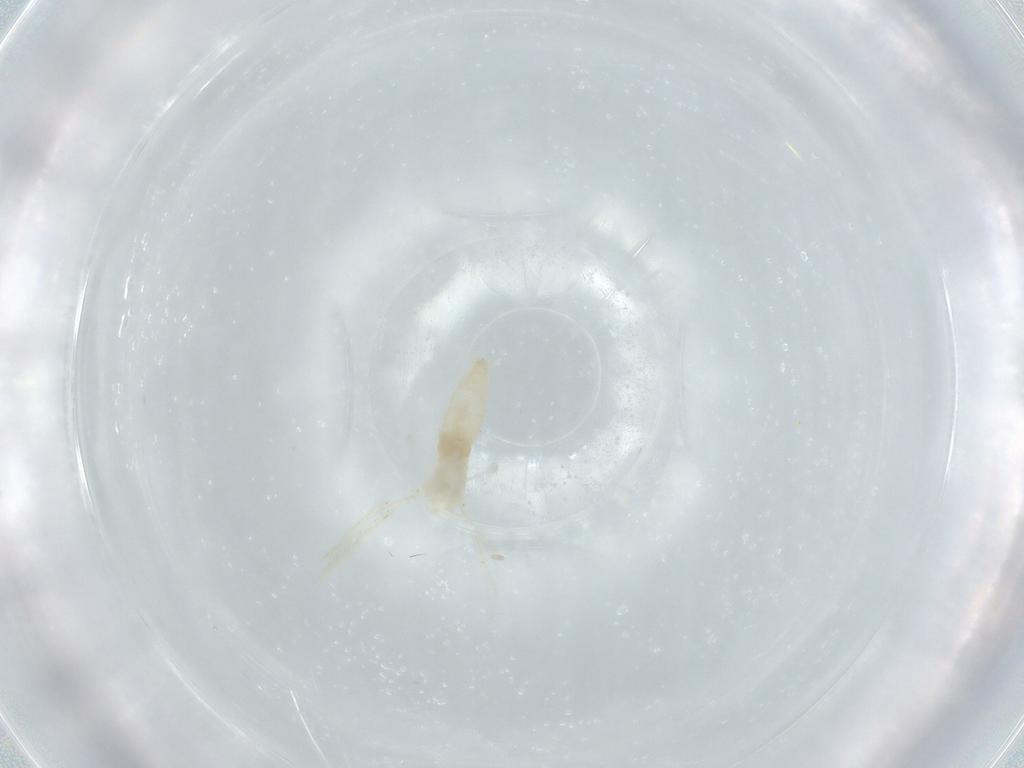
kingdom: Animalia
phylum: Arthropoda
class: Insecta
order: Diptera
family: Cecidomyiidae
